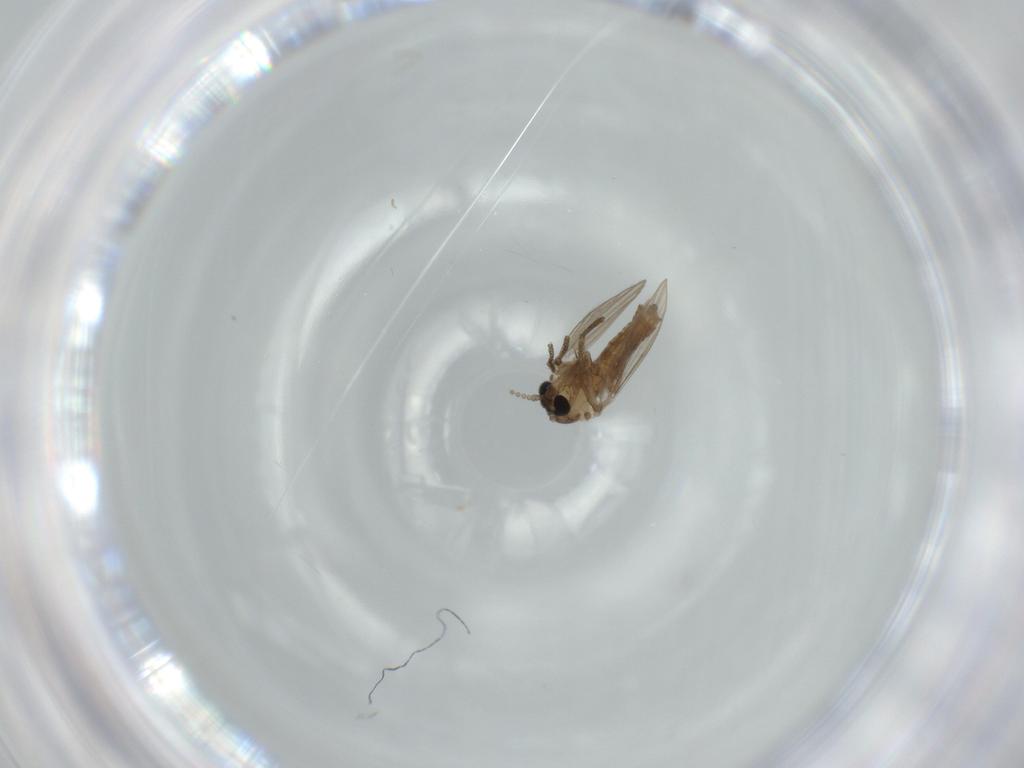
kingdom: Animalia
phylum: Arthropoda
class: Insecta
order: Diptera
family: Psychodidae
